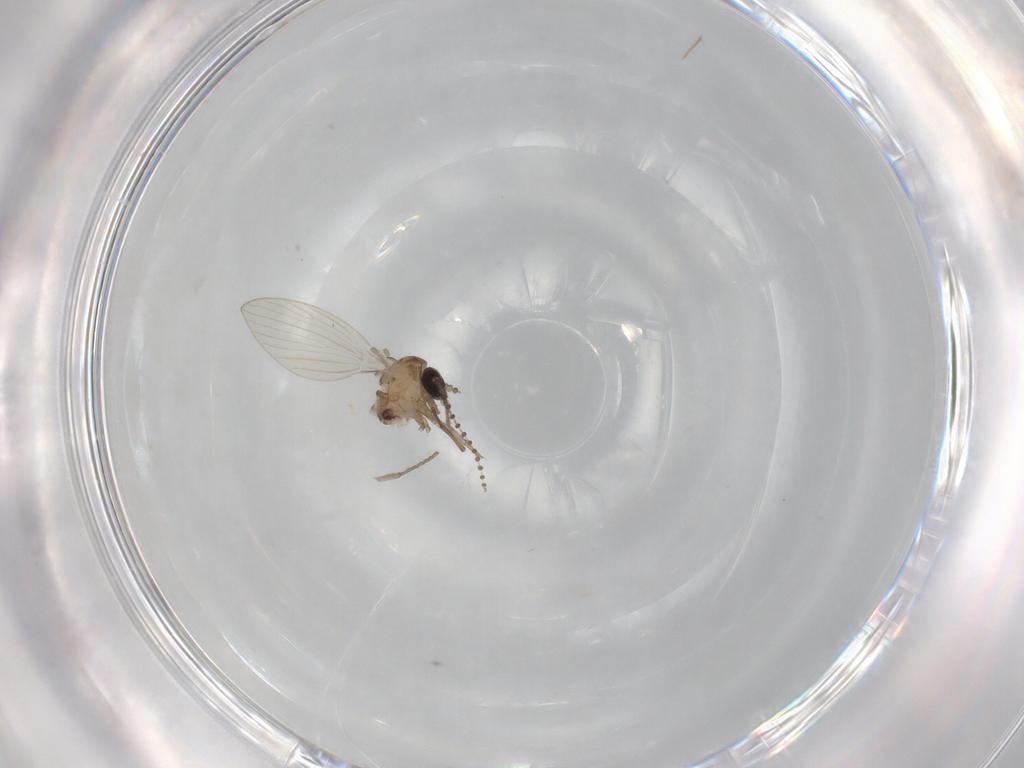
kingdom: Animalia
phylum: Arthropoda
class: Insecta
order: Diptera
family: Psychodidae
